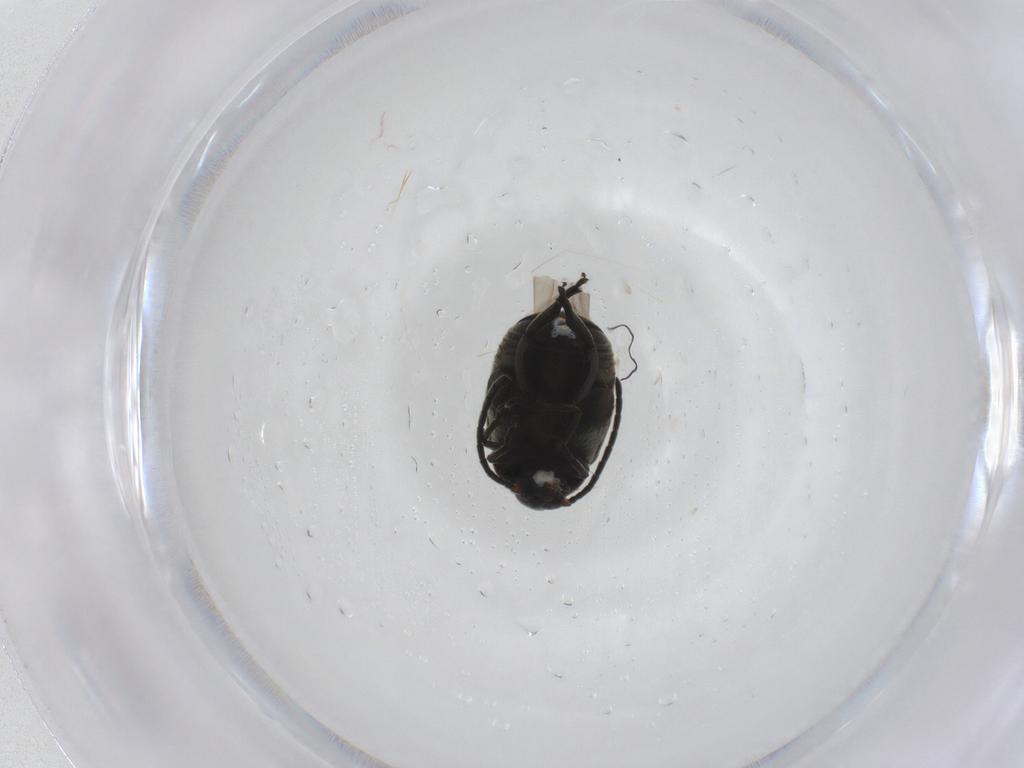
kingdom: Animalia
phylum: Arthropoda
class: Insecta
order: Coleoptera
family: Chrysomelidae
